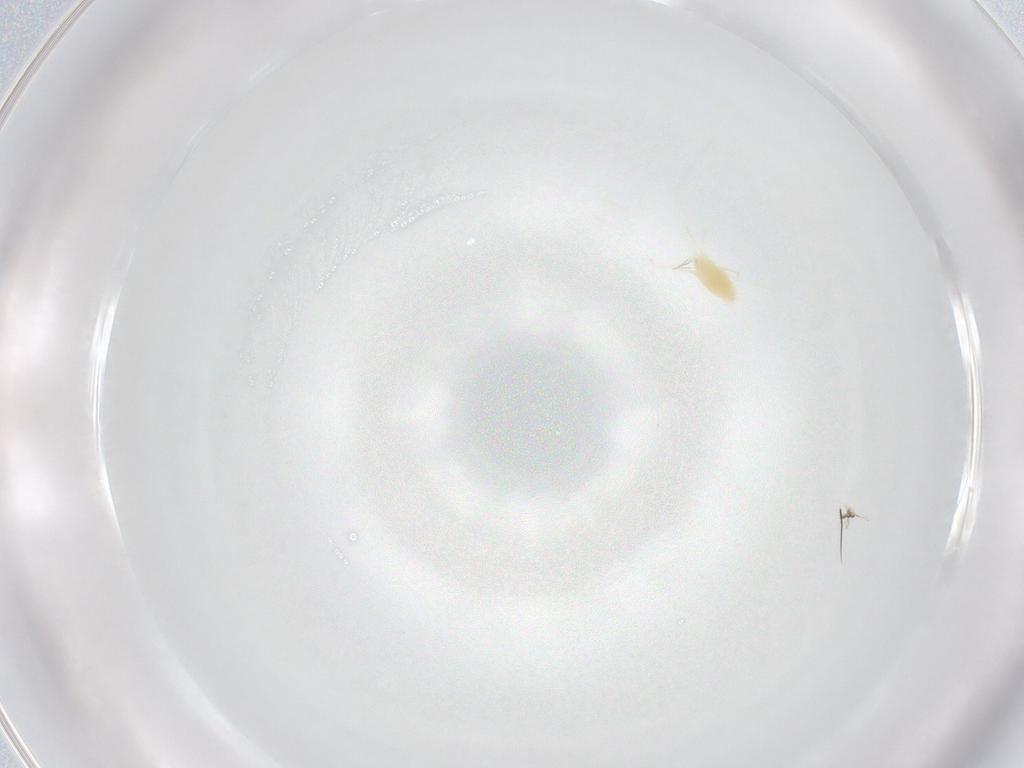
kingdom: Animalia
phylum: Arthropoda
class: Arachnida
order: Trombidiformes
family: Tetranychidae
